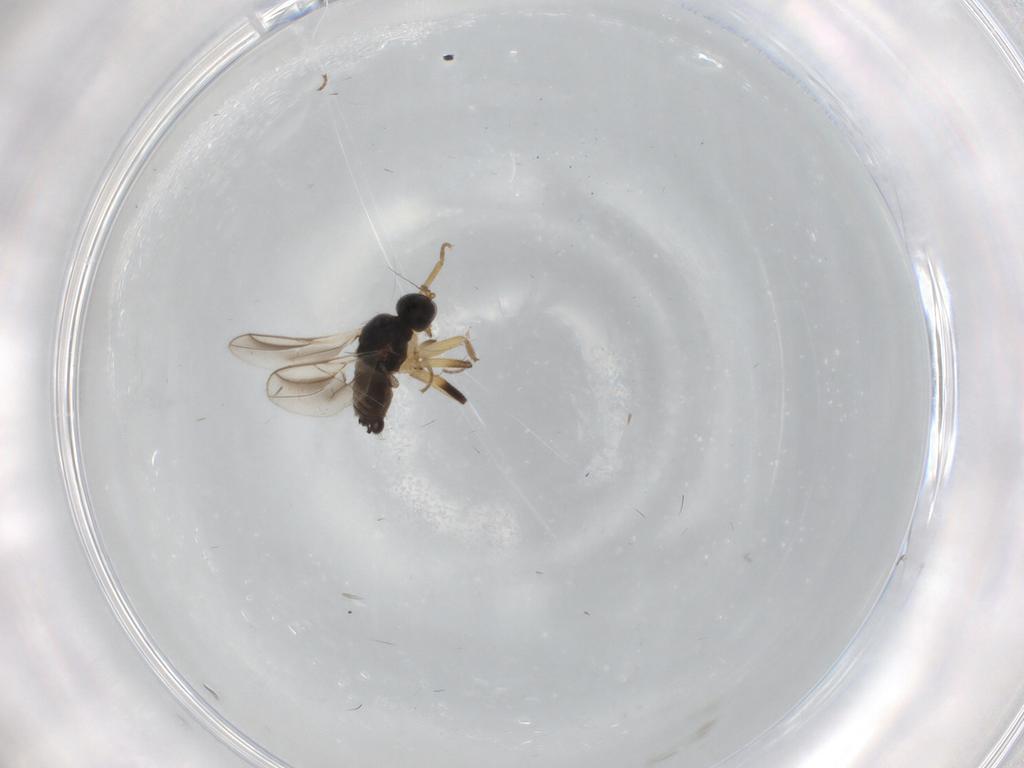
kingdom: Animalia
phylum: Arthropoda
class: Insecta
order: Diptera
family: Hybotidae
